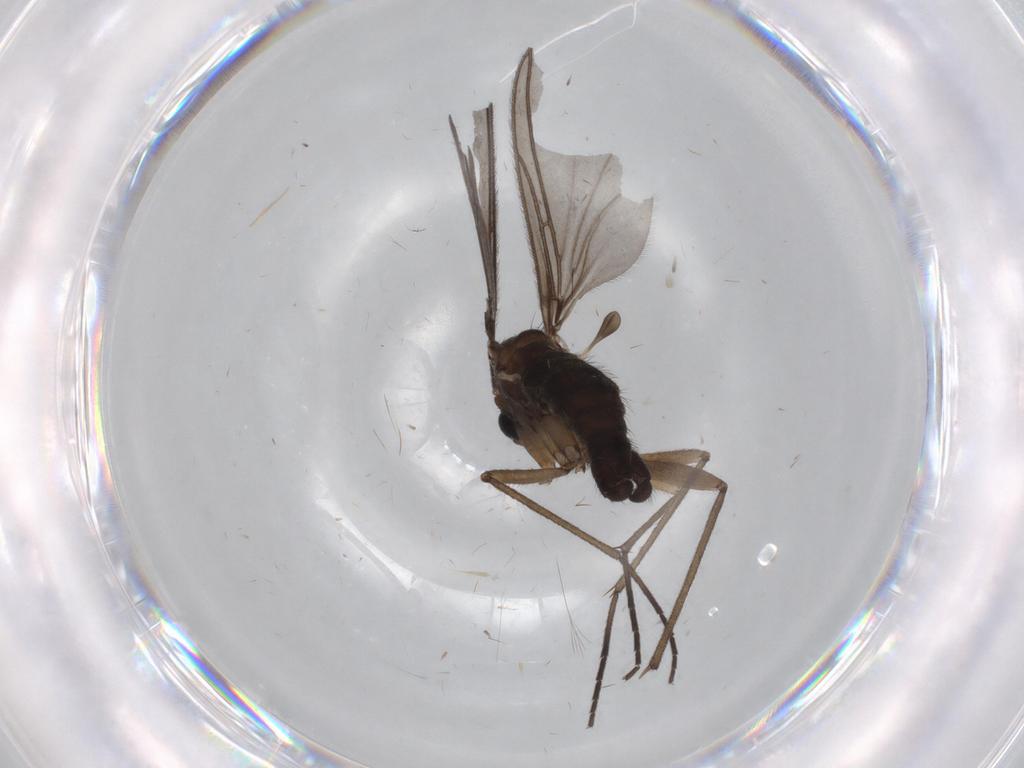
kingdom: Animalia
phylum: Arthropoda
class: Insecta
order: Diptera
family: Sciaridae
